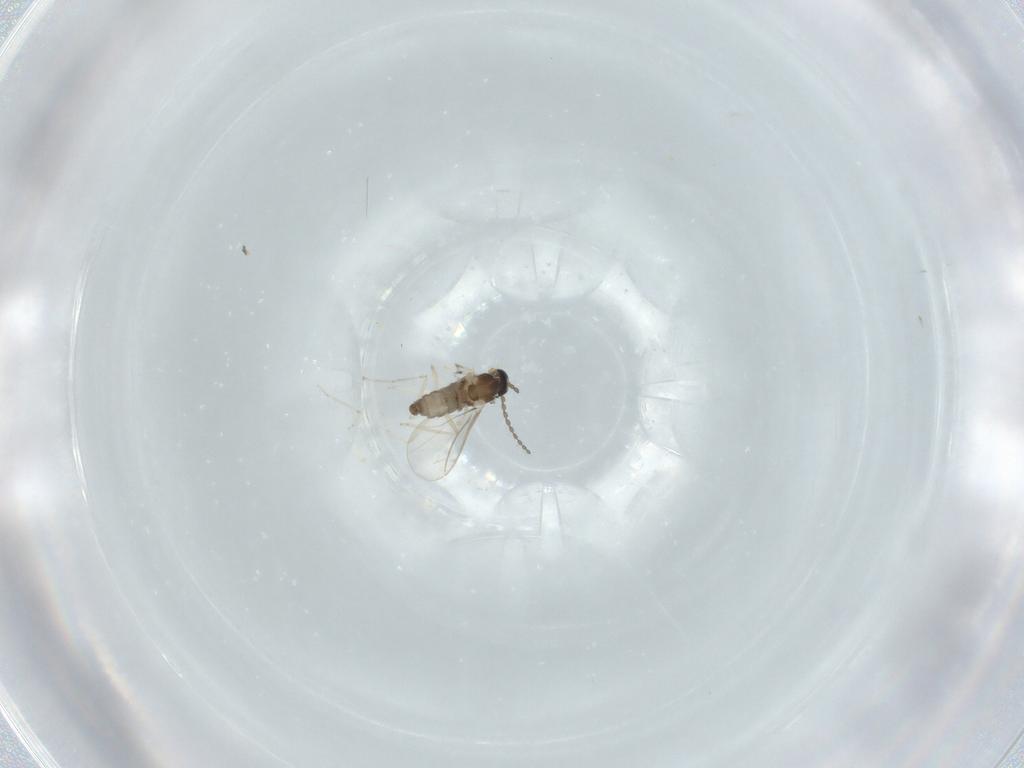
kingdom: Animalia
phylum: Arthropoda
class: Insecta
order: Diptera
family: Cecidomyiidae
